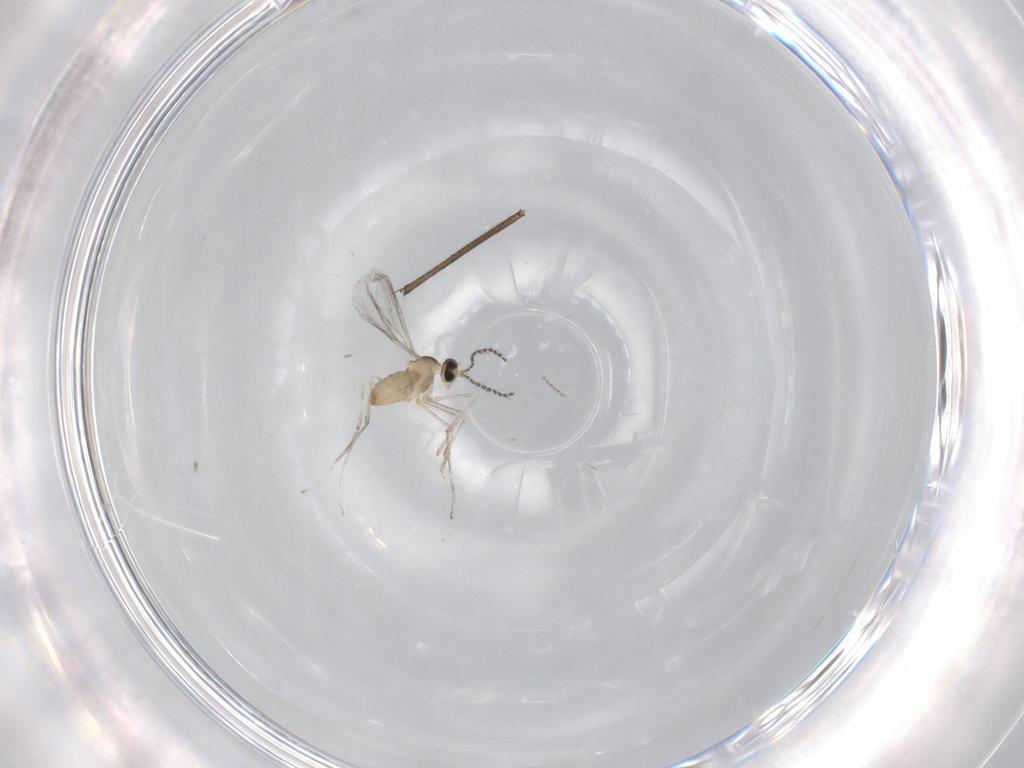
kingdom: Animalia
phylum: Arthropoda
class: Insecta
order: Diptera
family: Sciaridae
